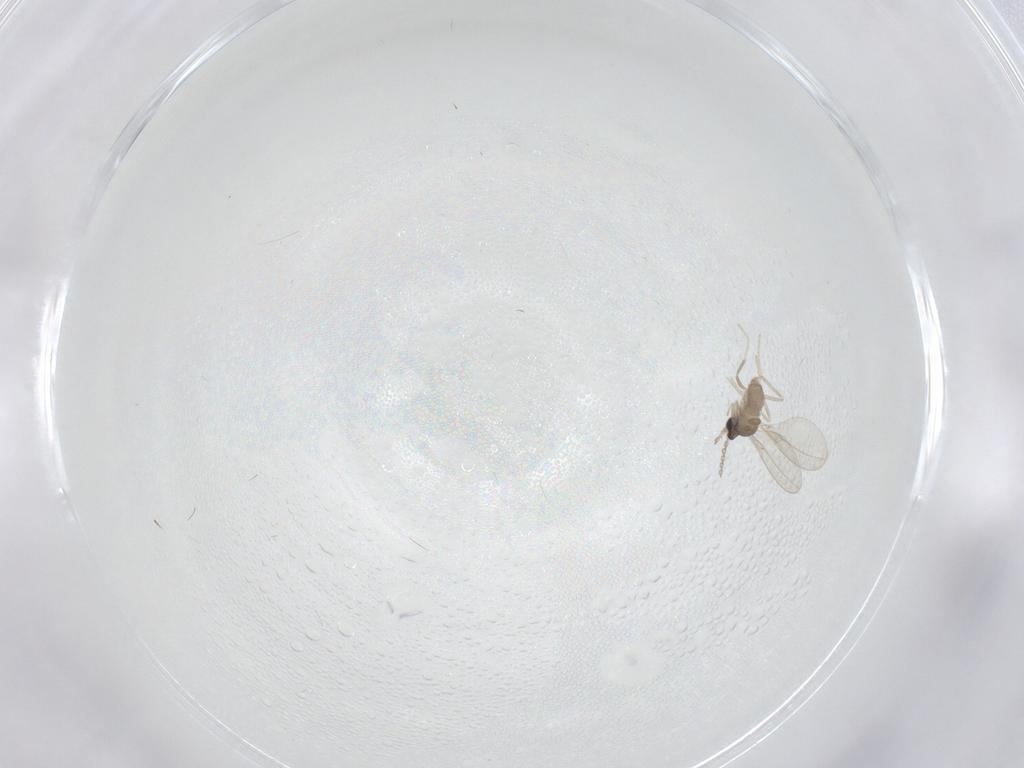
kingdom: Animalia
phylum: Arthropoda
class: Insecta
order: Diptera
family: Cecidomyiidae
